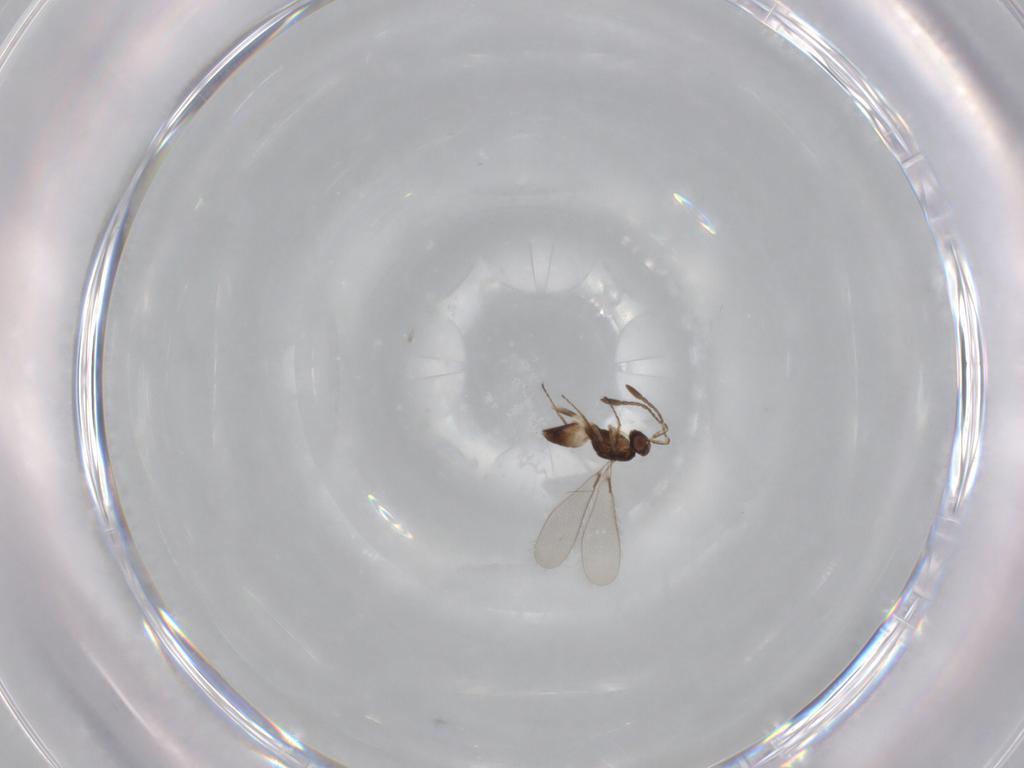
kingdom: Animalia
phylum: Arthropoda
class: Insecta
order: Hymenoptera
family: Mymaridae
